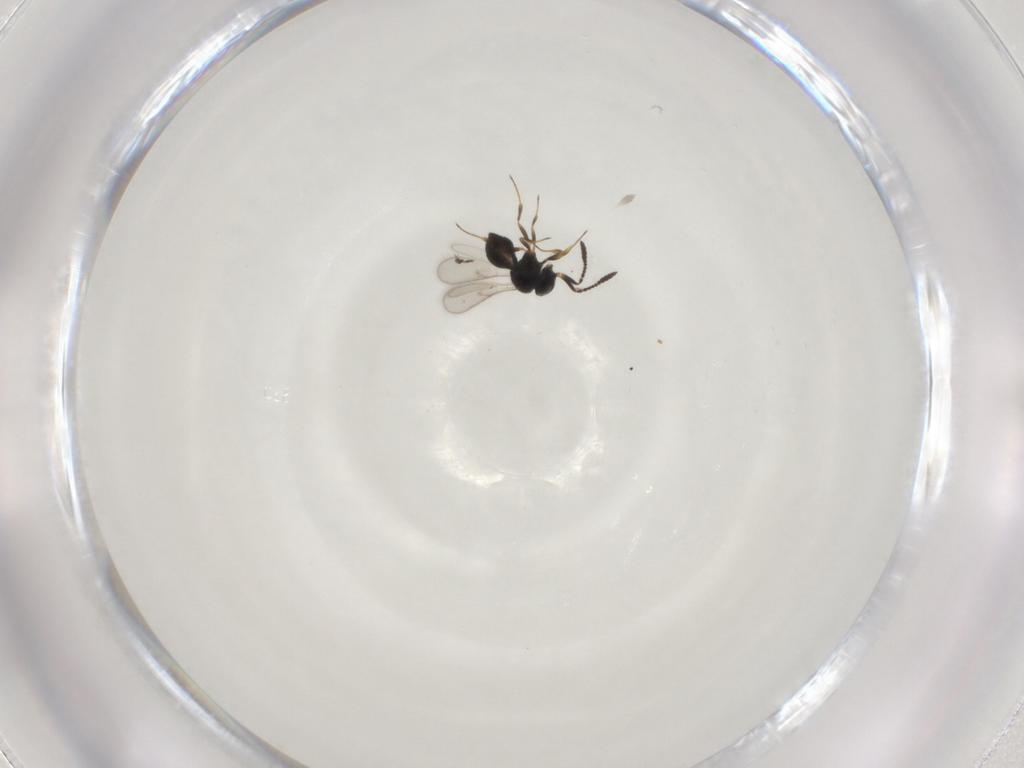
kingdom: Animalia
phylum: Arthropoda
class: Insecta
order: Hymenoptera
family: Scelionidae
